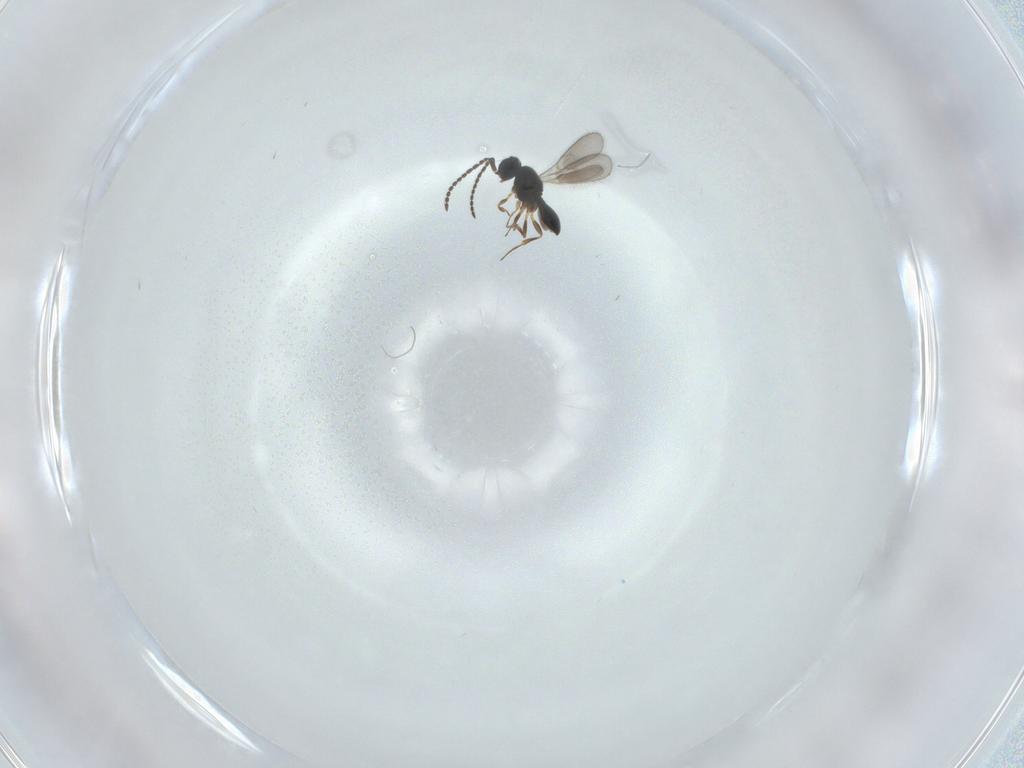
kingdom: Animalia
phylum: Arthropoda
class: Insecta
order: Hymenoptera
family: Scelionidae
